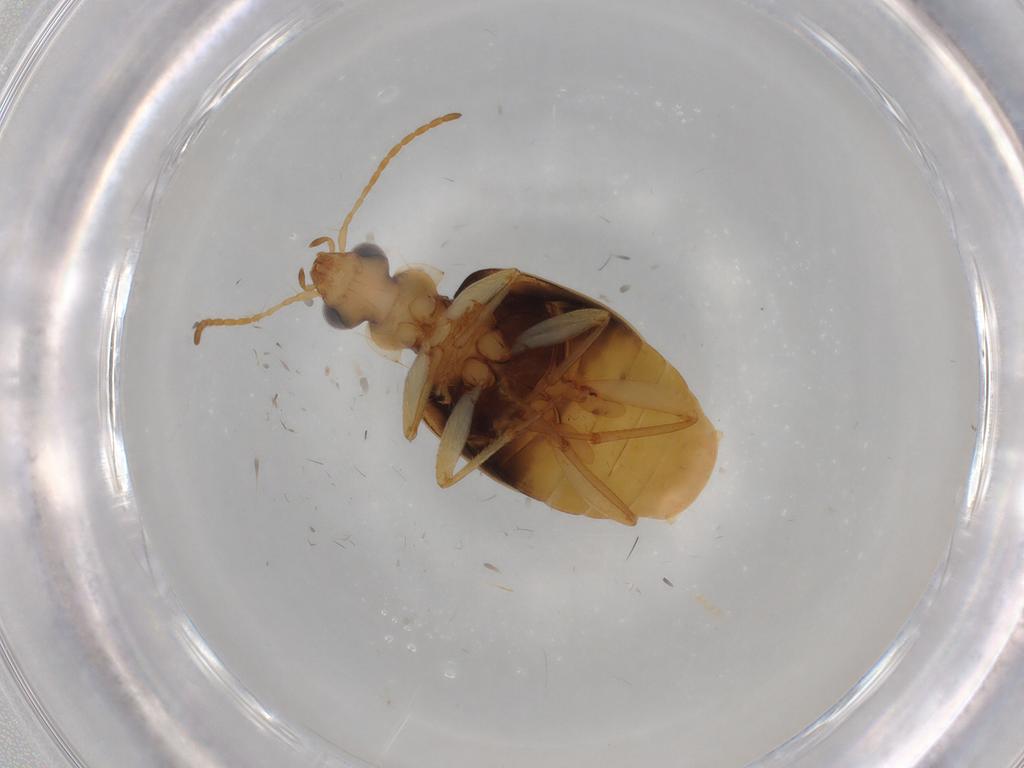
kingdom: Animalia
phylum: Arthropoda
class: Insecta
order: Coleoptera
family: Carabidae
